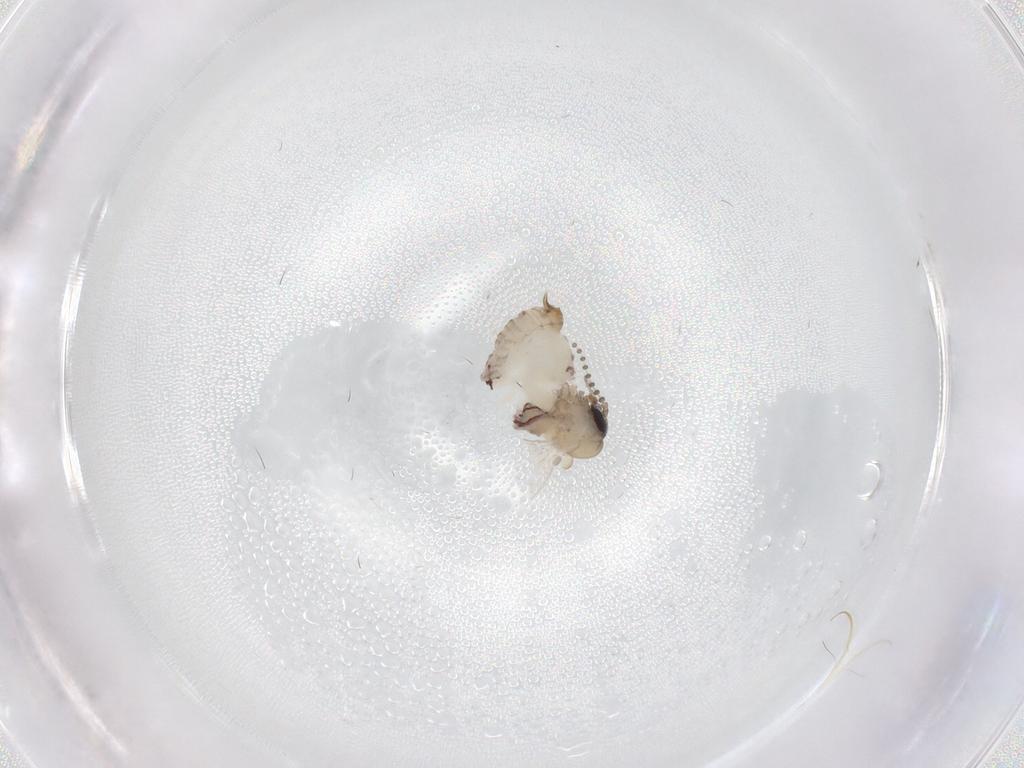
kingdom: Animalia
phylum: Arthropoda
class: Insecta
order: Diptera
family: Psychodidae
